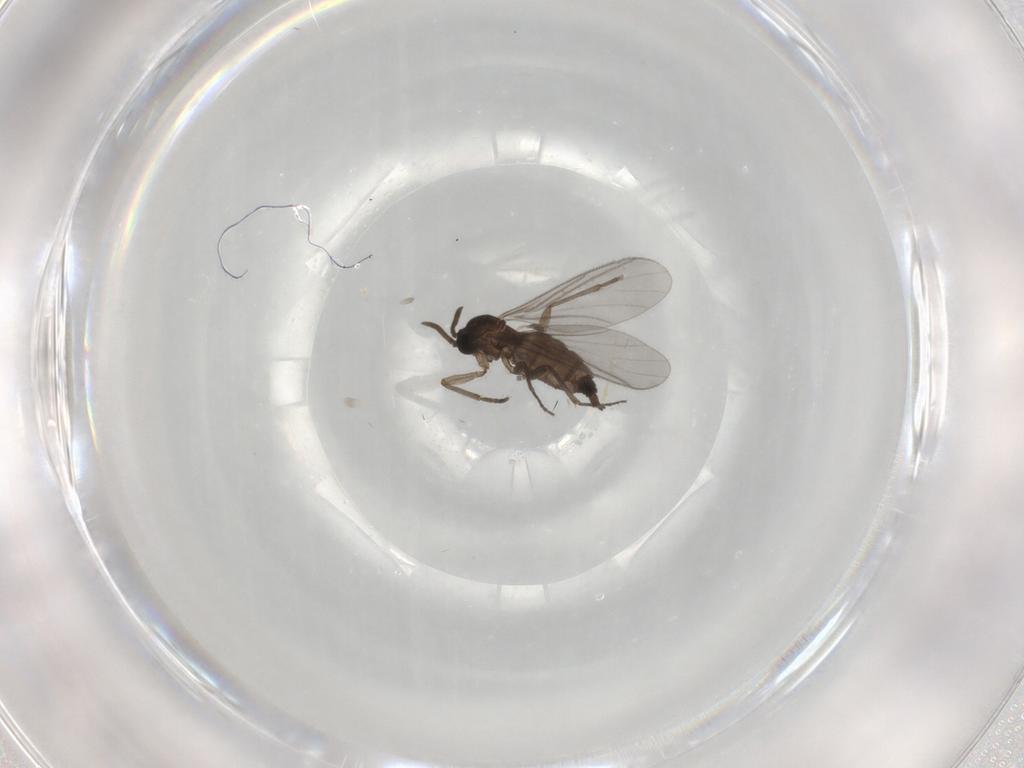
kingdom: Animalia
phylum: Arthropoda
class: Insecta
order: Diptera
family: Sciaridae
